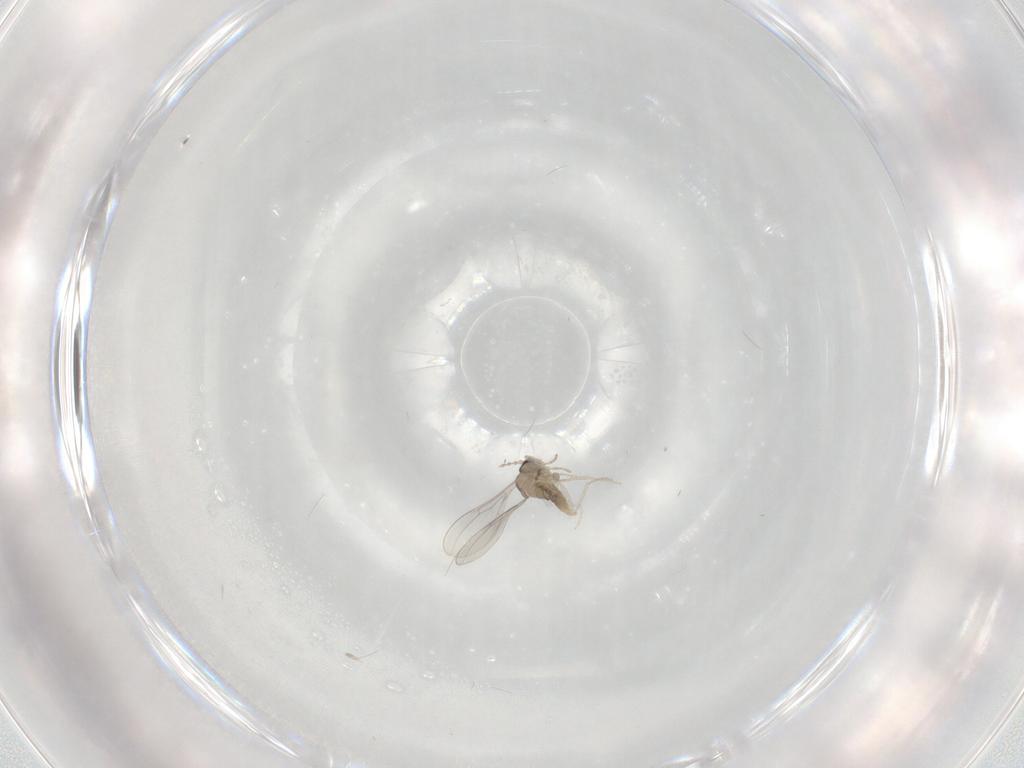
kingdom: Animalia
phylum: Arthropoda
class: Insecta
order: Diptera
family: Cecidomyiidae
